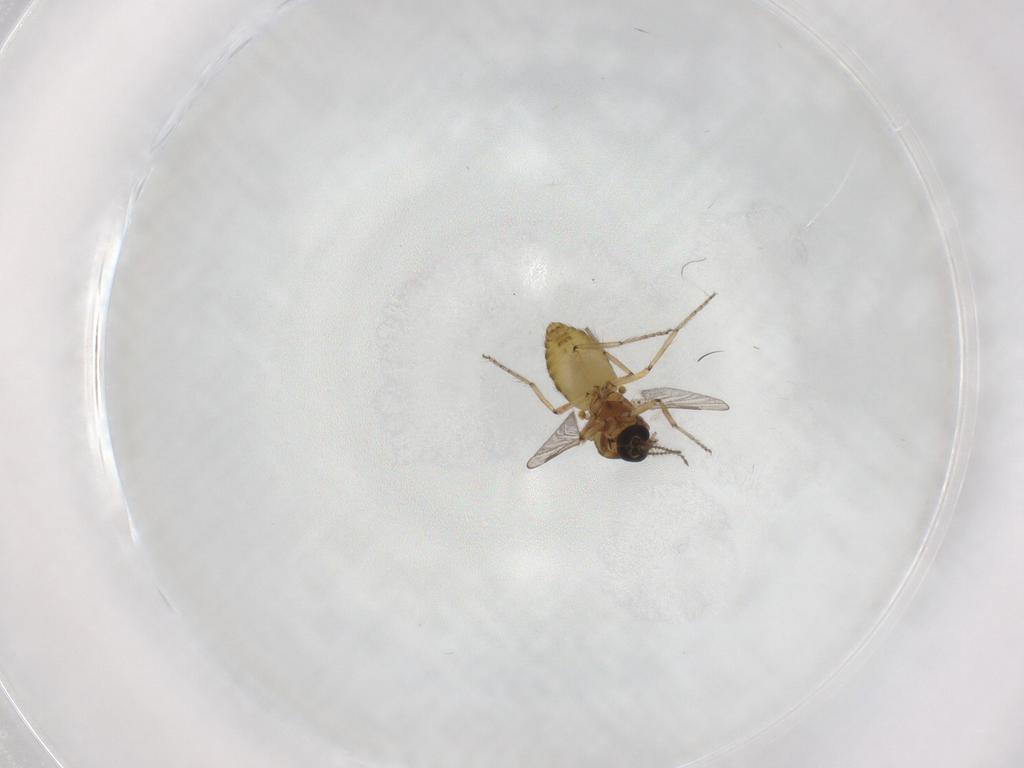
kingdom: Animalia
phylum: Arthropoda
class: Insecta
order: Diptera
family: Ceratopogonidae
